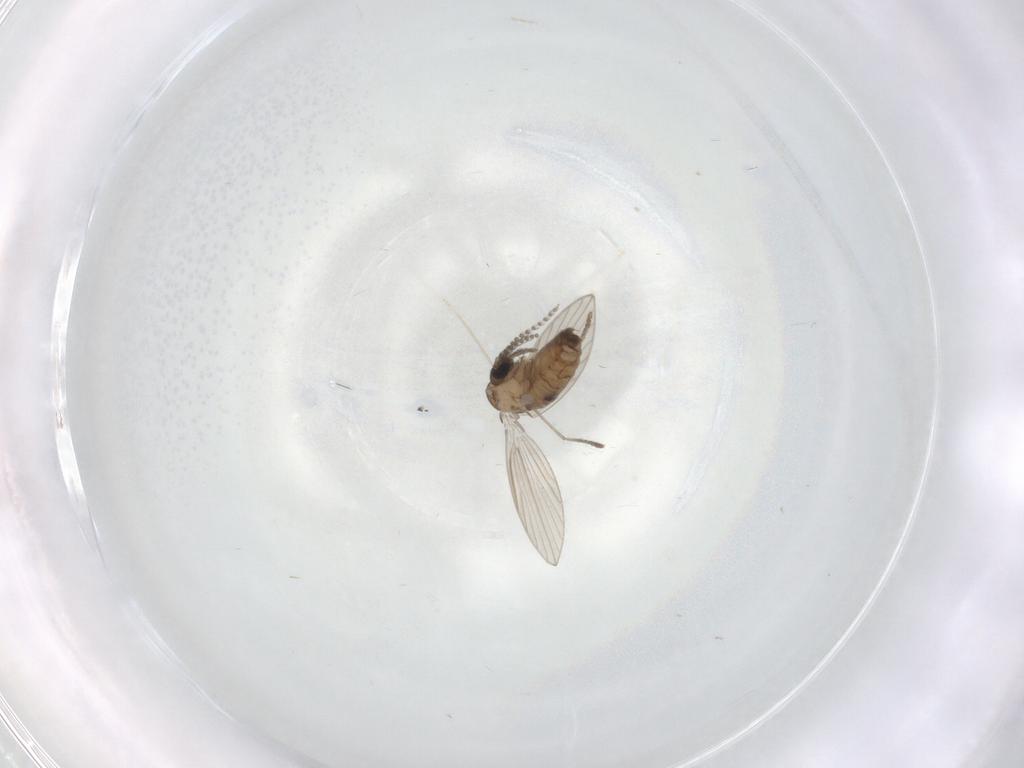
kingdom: Animalia
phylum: Arthropoda
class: Insecta
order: Diptera
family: Psychodidae
